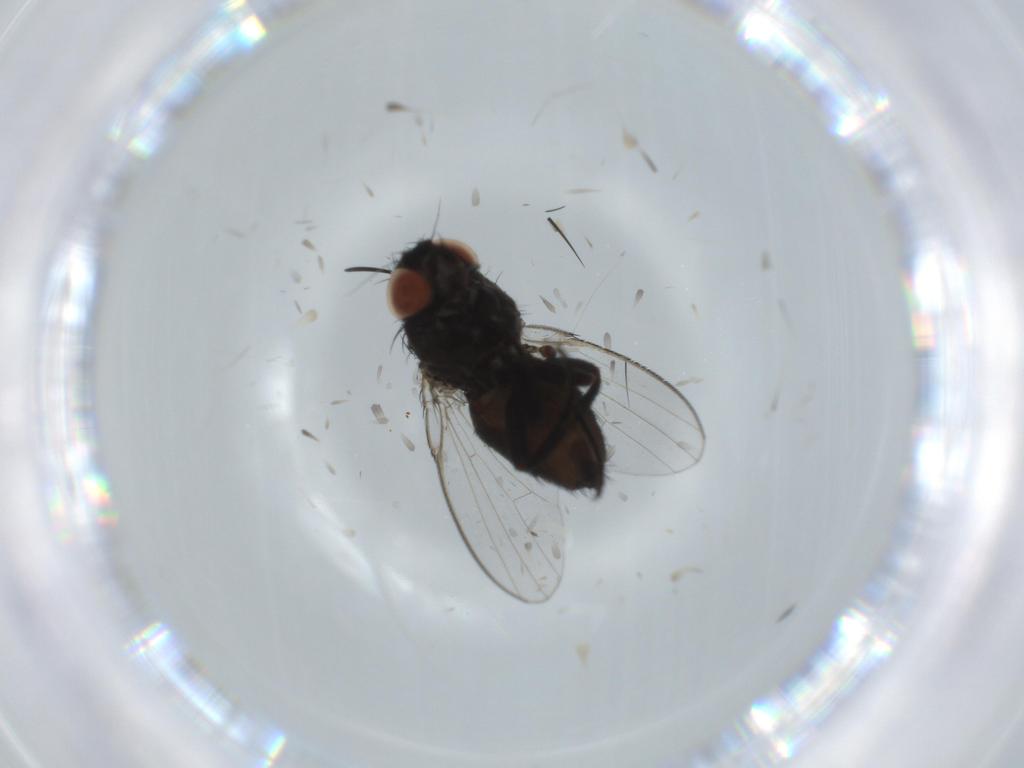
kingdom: Animalia
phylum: Arthropoda
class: Insecta
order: Diptera
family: Milichiidae
